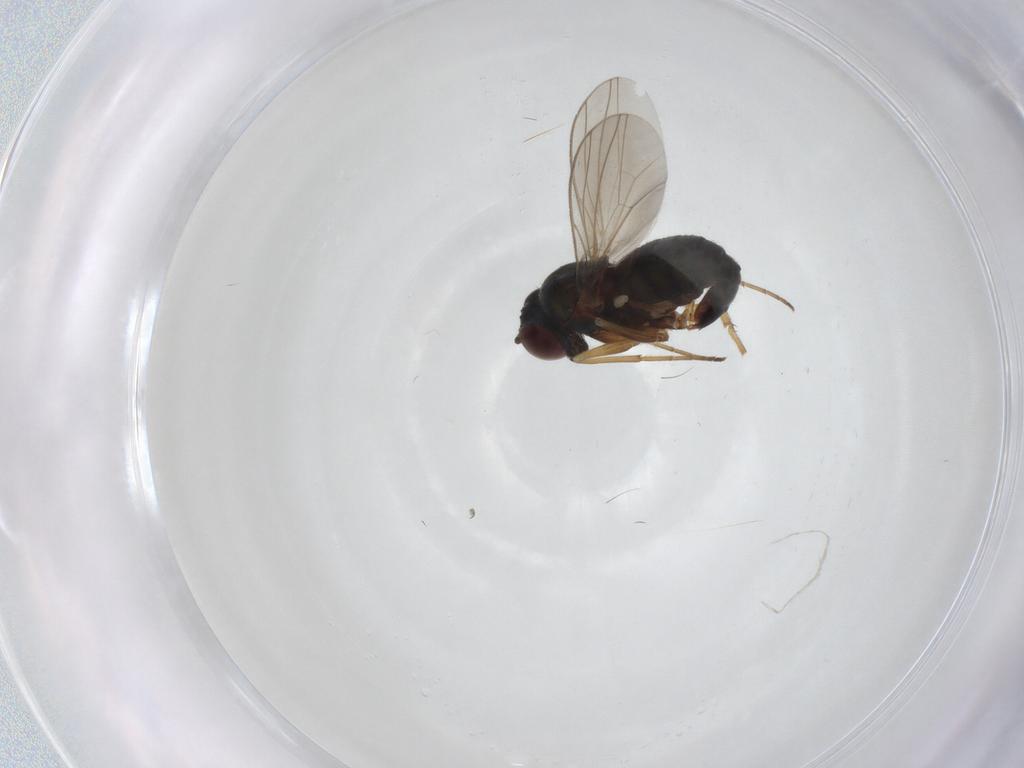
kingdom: Animalia
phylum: Arthropoda
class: Insecta
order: Diptera
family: Dolichopodidae
